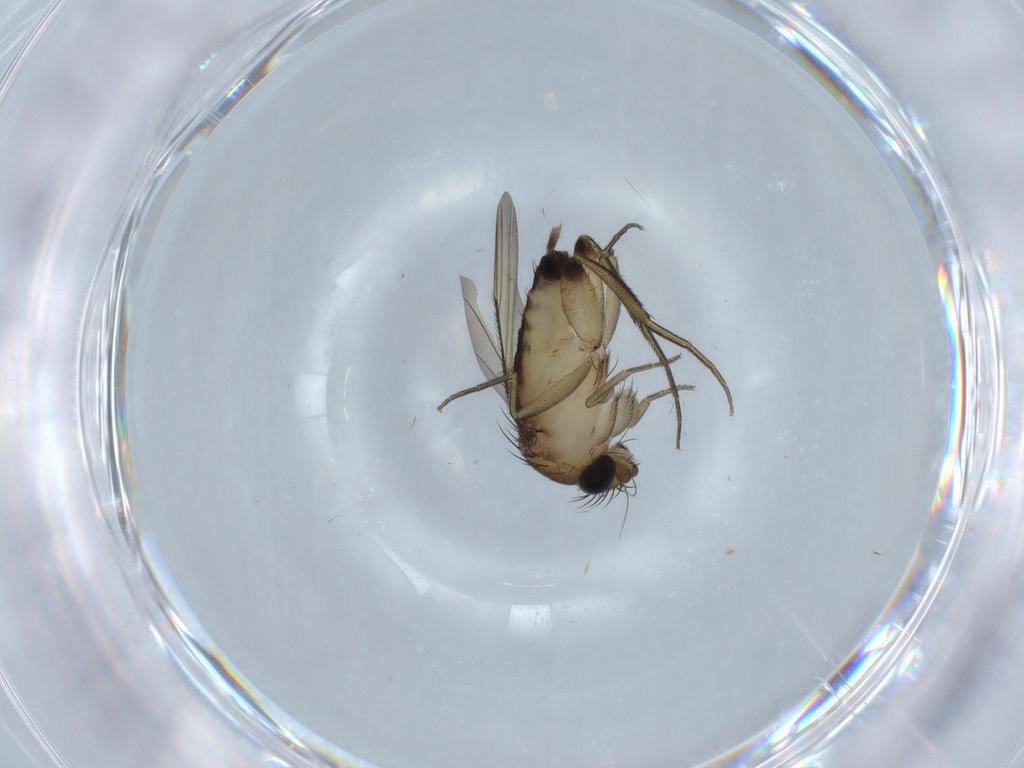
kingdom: Animalia
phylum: Arthropoda
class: Insecta
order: Diptera
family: Phoridae
